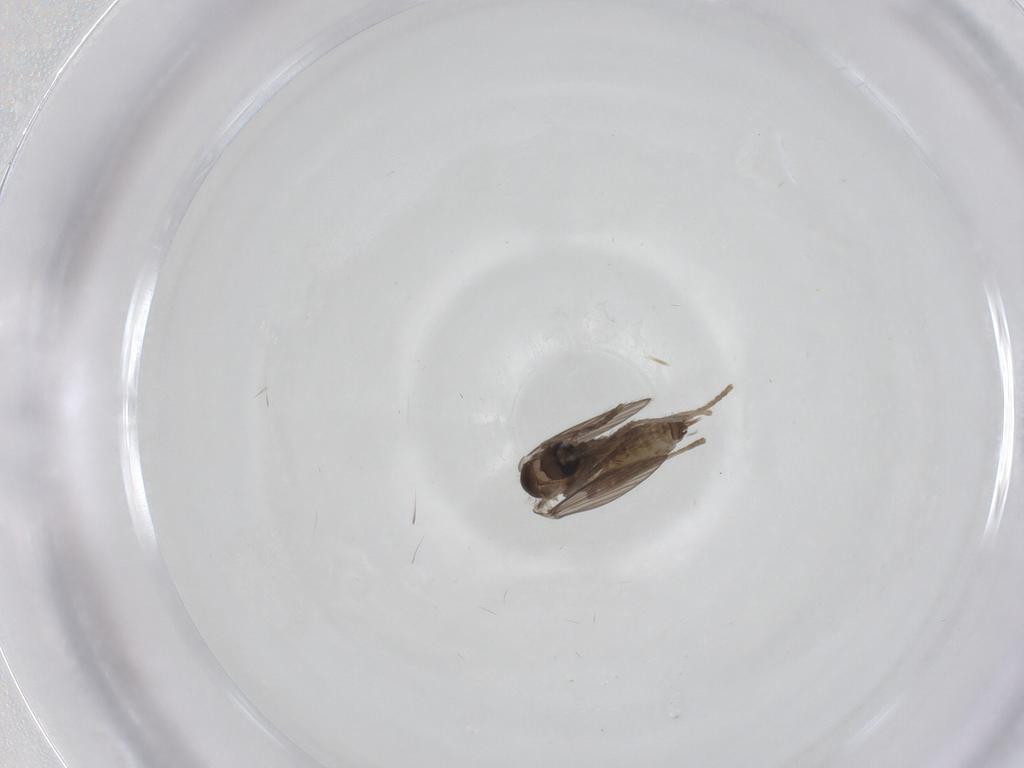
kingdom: Animalia
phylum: Arthropoda
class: Insecta
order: Diptera
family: Psychodidae
